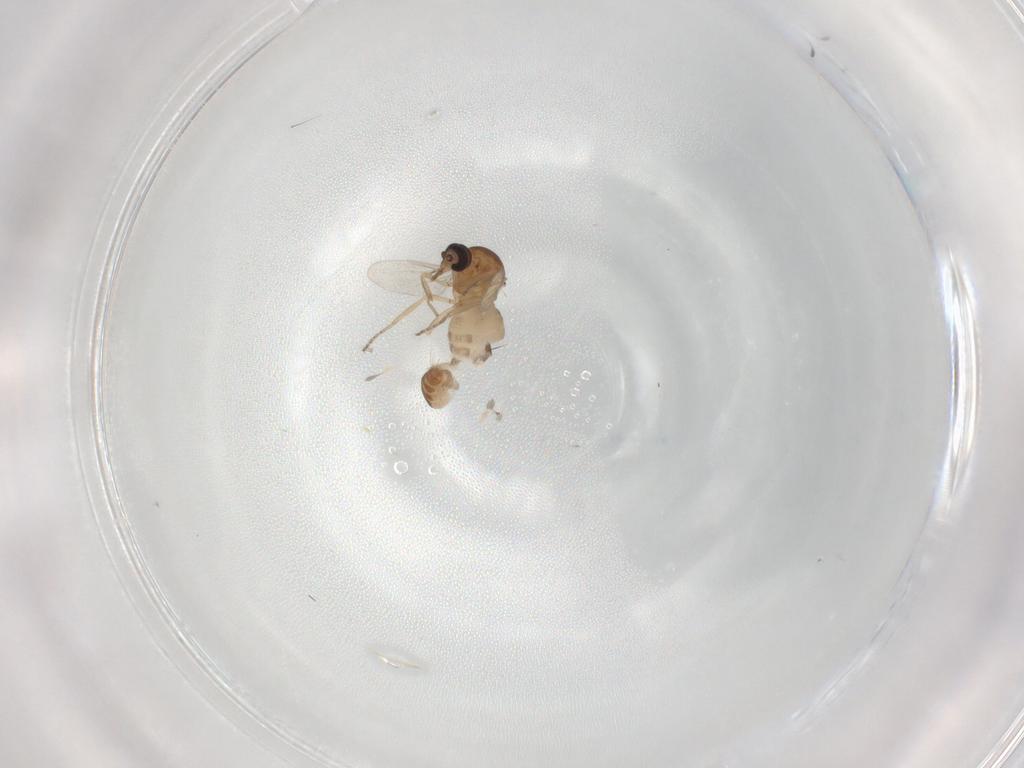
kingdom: Animalia
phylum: Arthropoda
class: Insecta
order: Diptera
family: Ceratopogonidae
